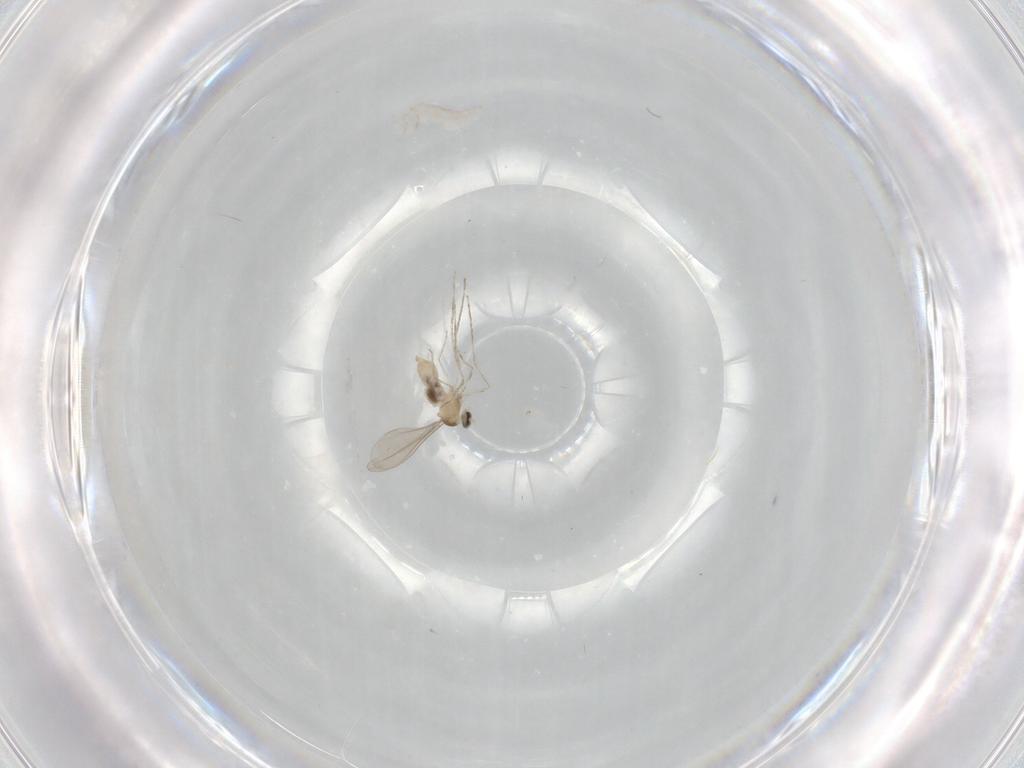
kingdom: Animalia
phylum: Arthropoda
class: Insecta
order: Diptera
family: Cecidomyiidae
